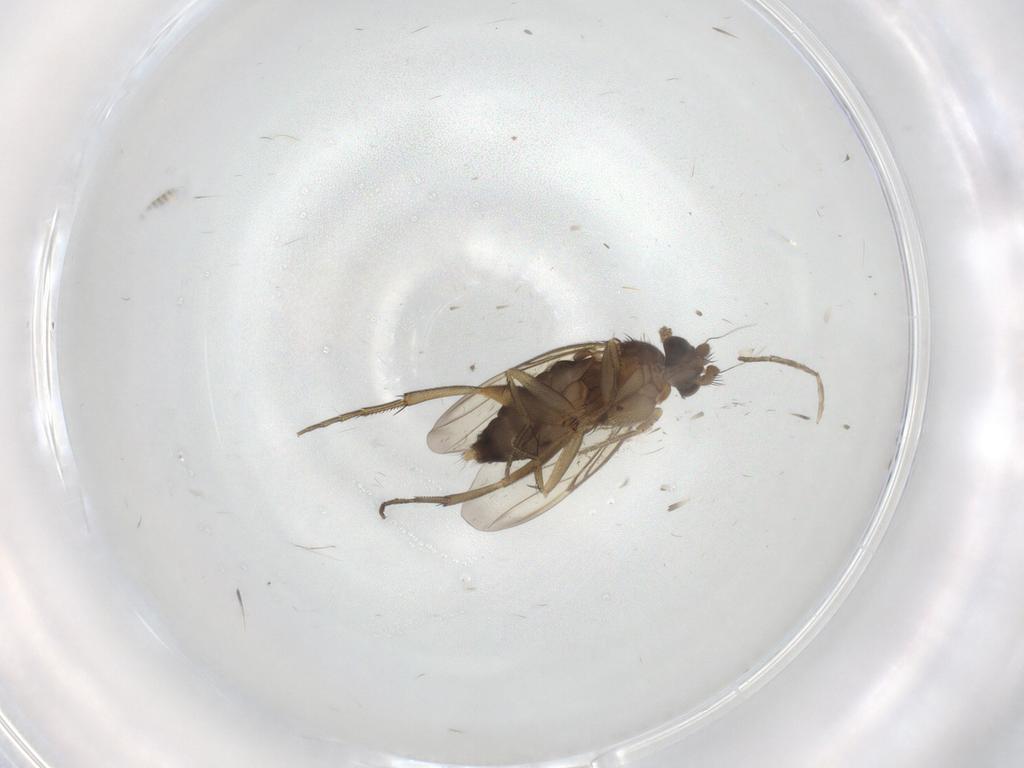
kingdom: Animalia
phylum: Arthropoda
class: Insecta
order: Diptera
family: Phoridae
